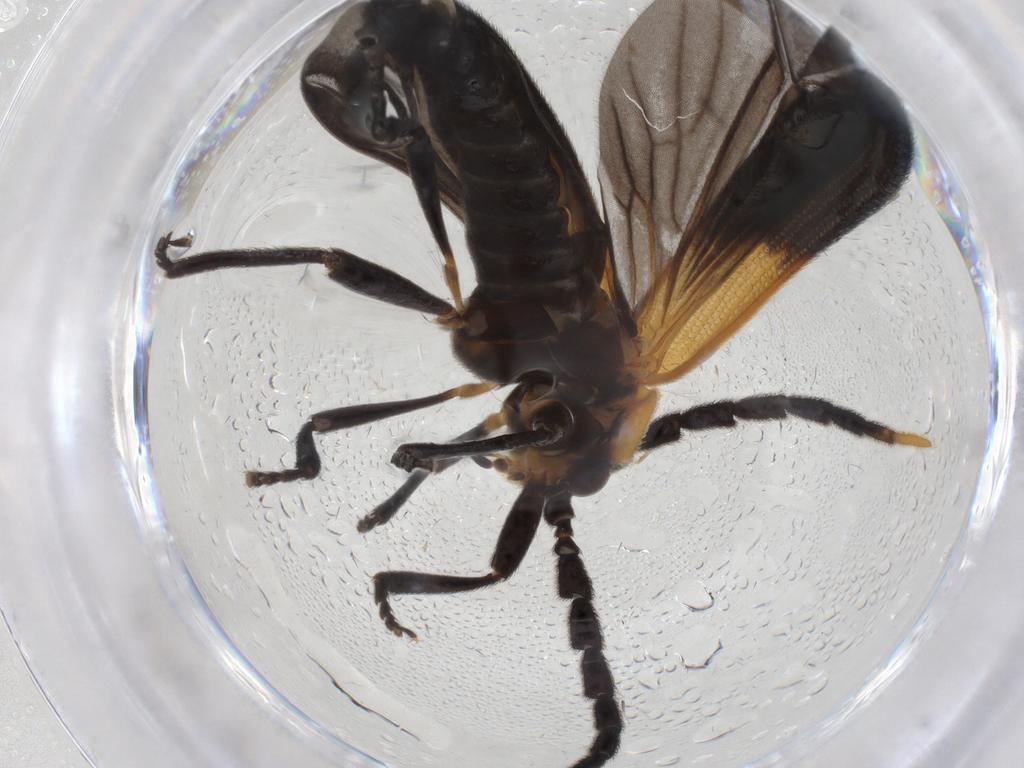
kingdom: Animalia
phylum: Arthropoda
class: Insecta
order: Coleoptera
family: Lycidae
